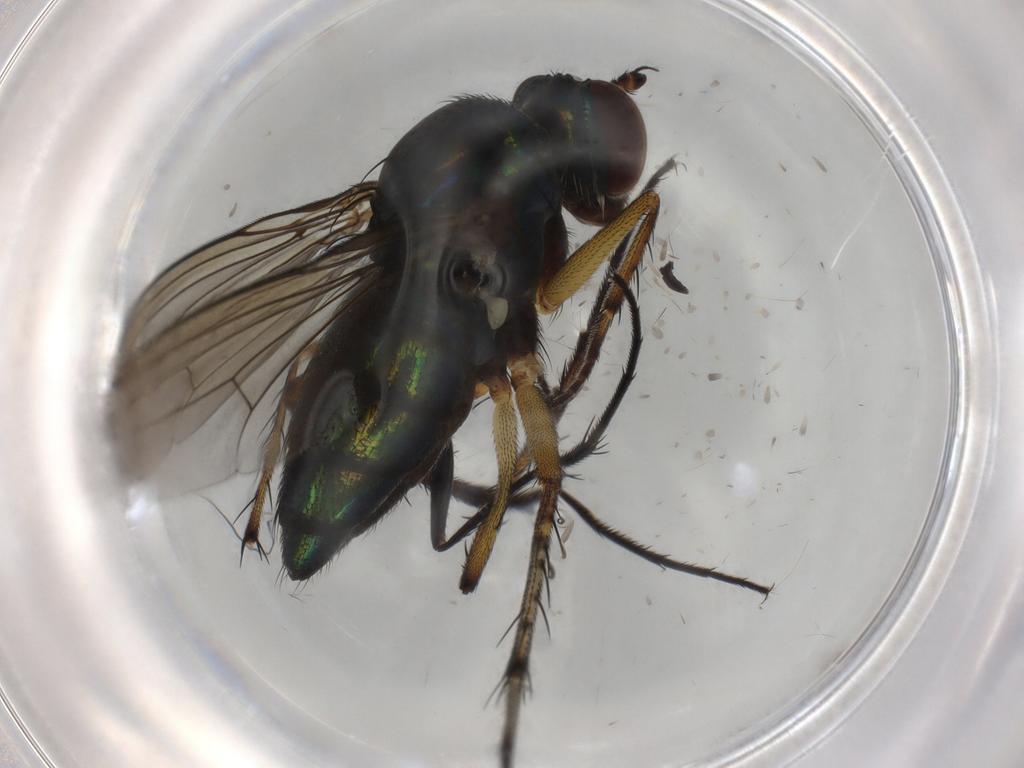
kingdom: Animalia
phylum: Arthropoda
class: Insecta
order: Diptera
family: Dolichopodidae
